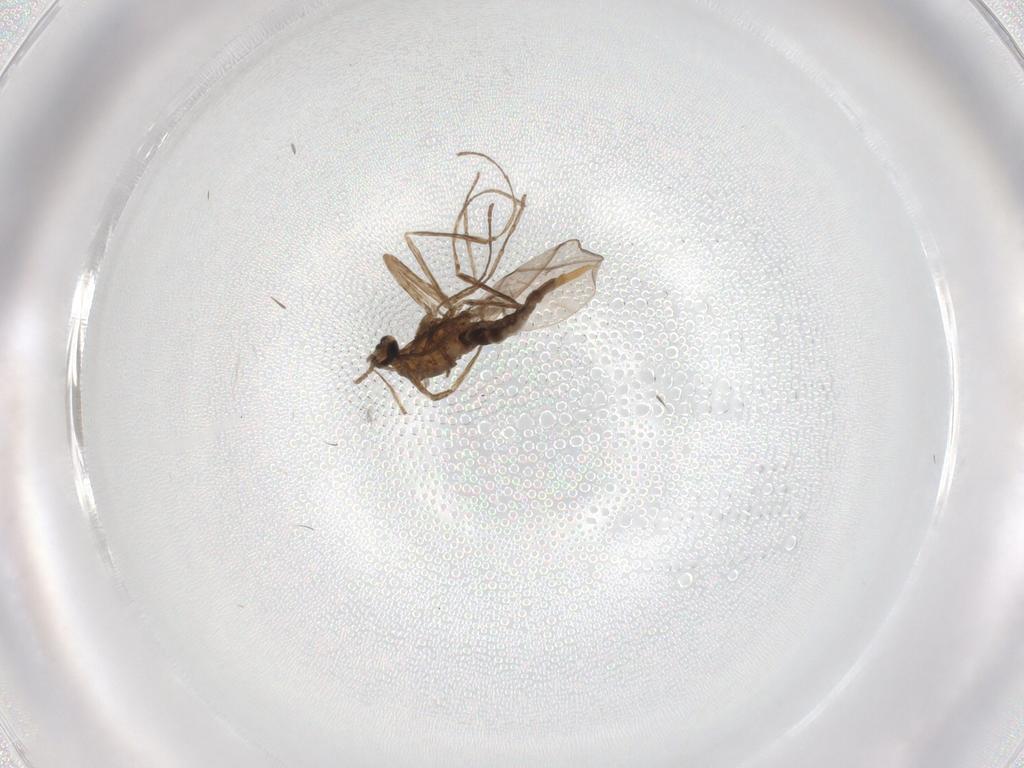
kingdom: Animalia
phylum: Arthropoda
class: Insecta
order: Diptera
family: Cecidomyiidae
